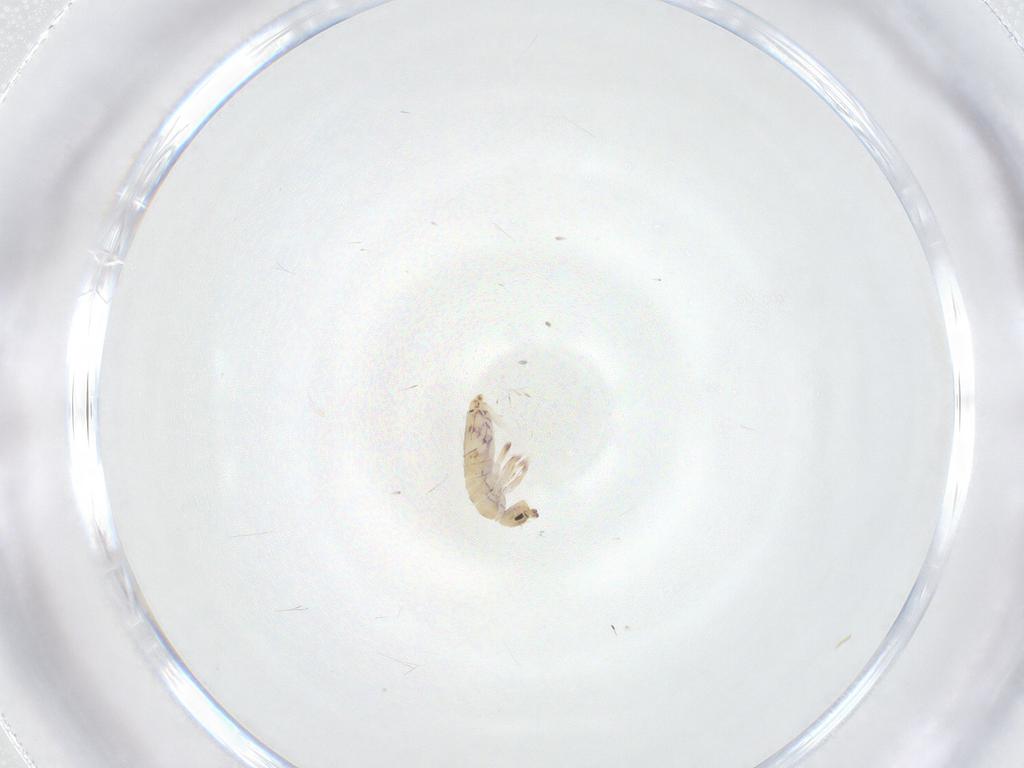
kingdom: Animalia
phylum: Arthropoda
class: Collembola
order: Entomobryomorpha
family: Entomobryidae
